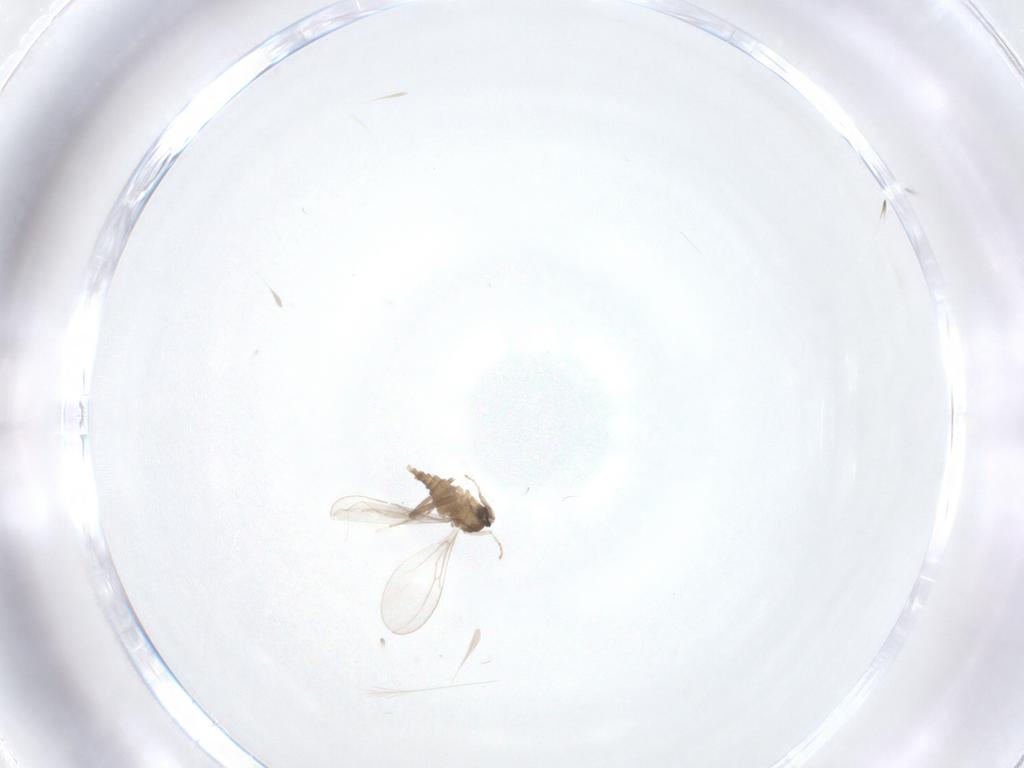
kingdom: Animalia
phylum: Arthropoda
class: Insecta
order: Diptera
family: Cecidomyiidae
